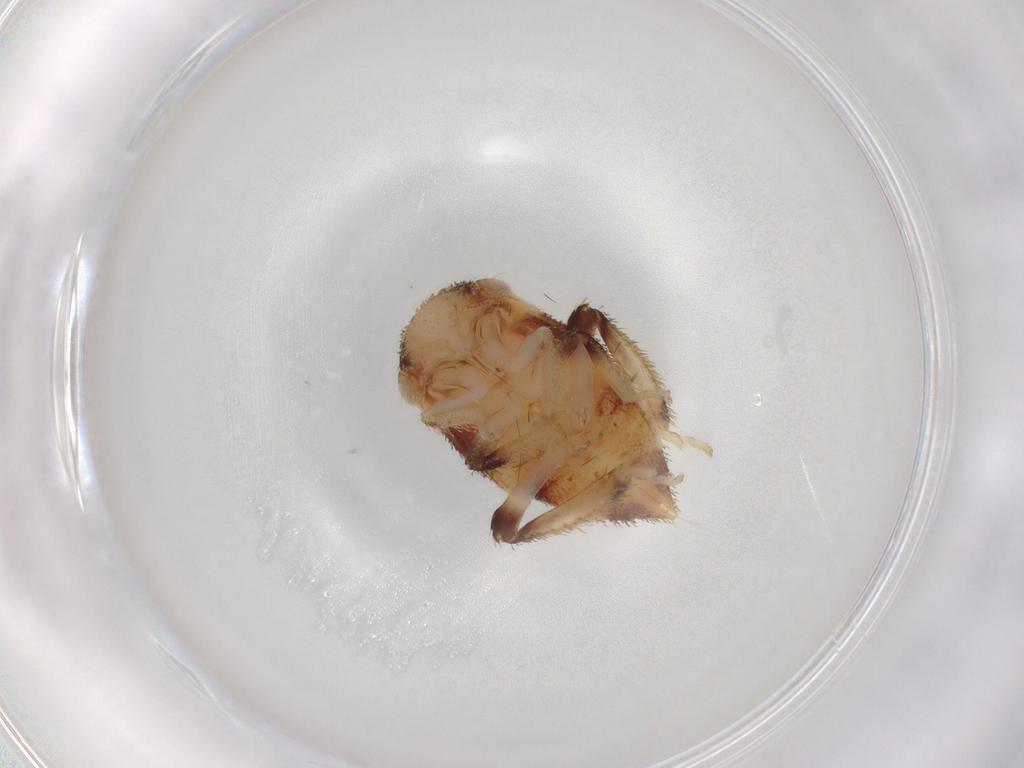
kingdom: Animalia
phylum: Arthropoda
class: Insecta
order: Hemiptera
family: Cicadellidae
